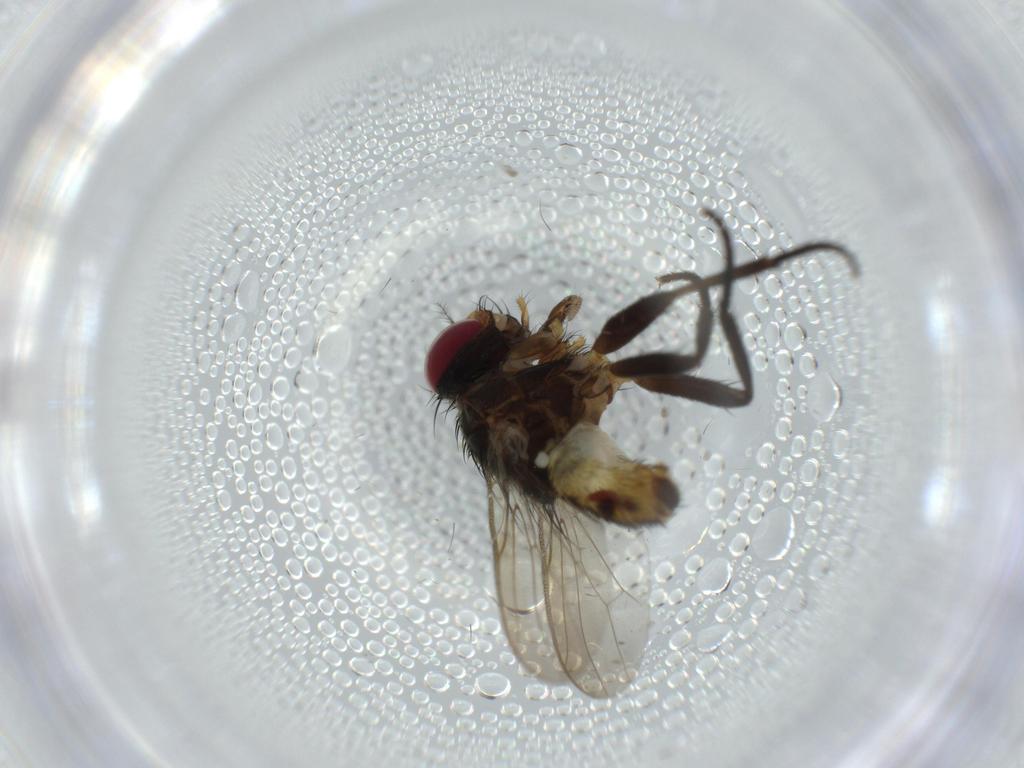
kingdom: Animalia
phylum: Arthropoda
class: Insecta
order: Diptera
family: Anthomyiidae
